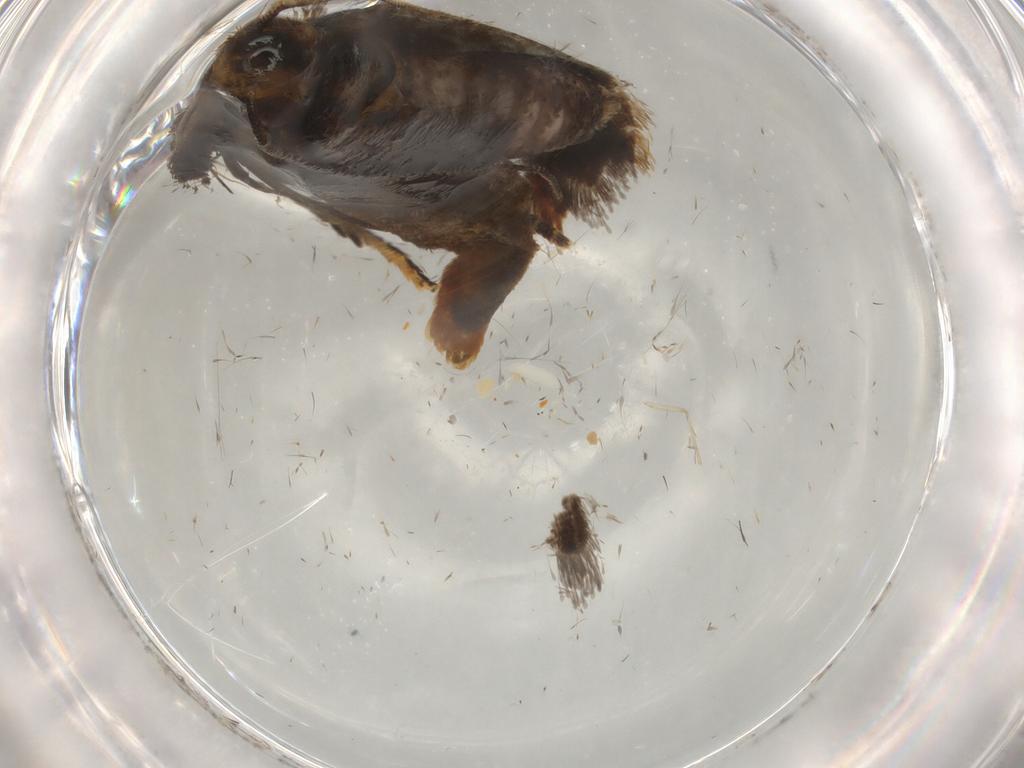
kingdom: Animalia
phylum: Arthropoda
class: Insecta
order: Lepidoptera
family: Gelechiidae
